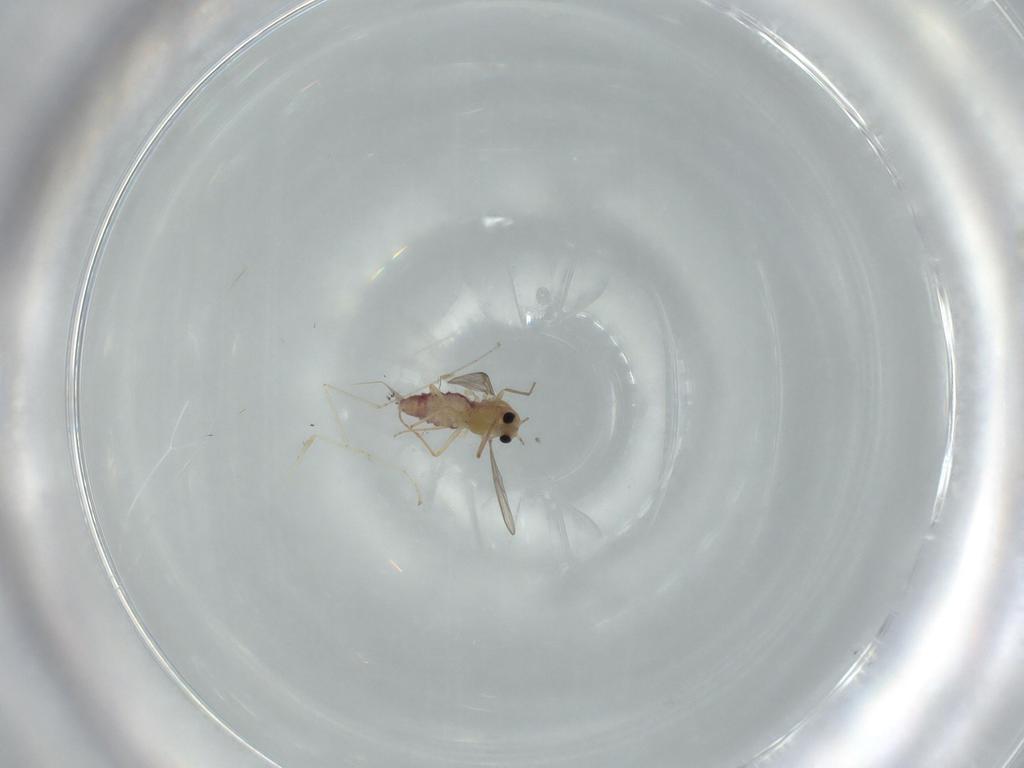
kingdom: Animalia
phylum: Arthropoda
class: Insecta
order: Diptera
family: Chironomidae
